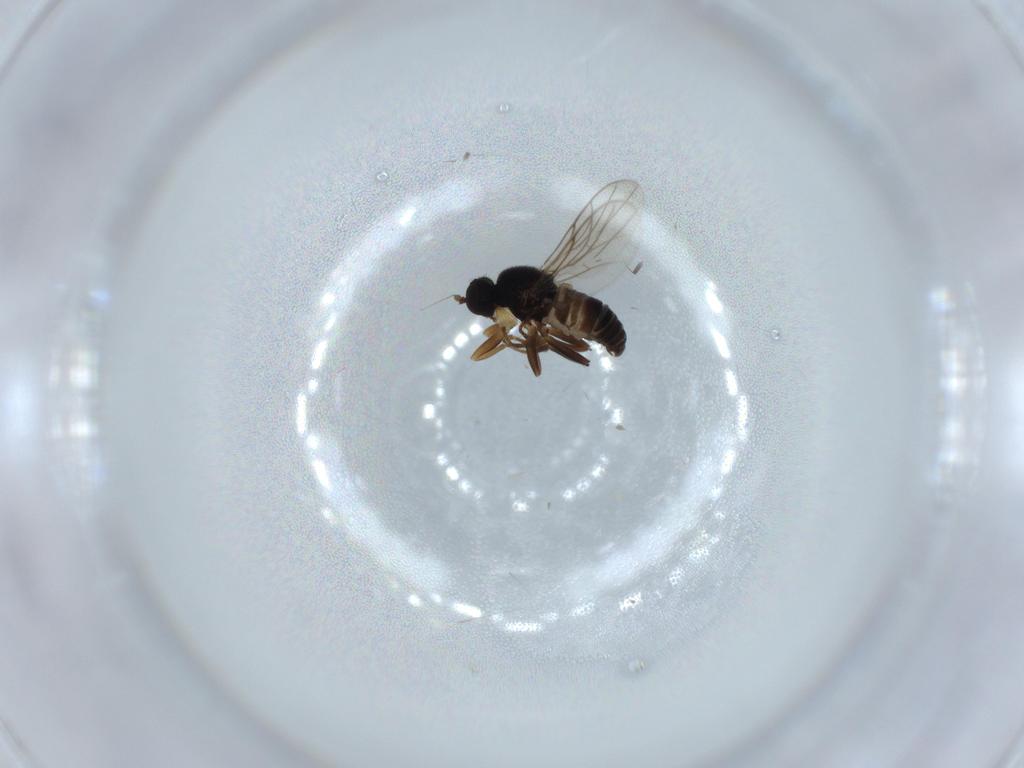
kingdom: Animalia
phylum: Arthropoda
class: Insecta
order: Diptera
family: Hybotidae
